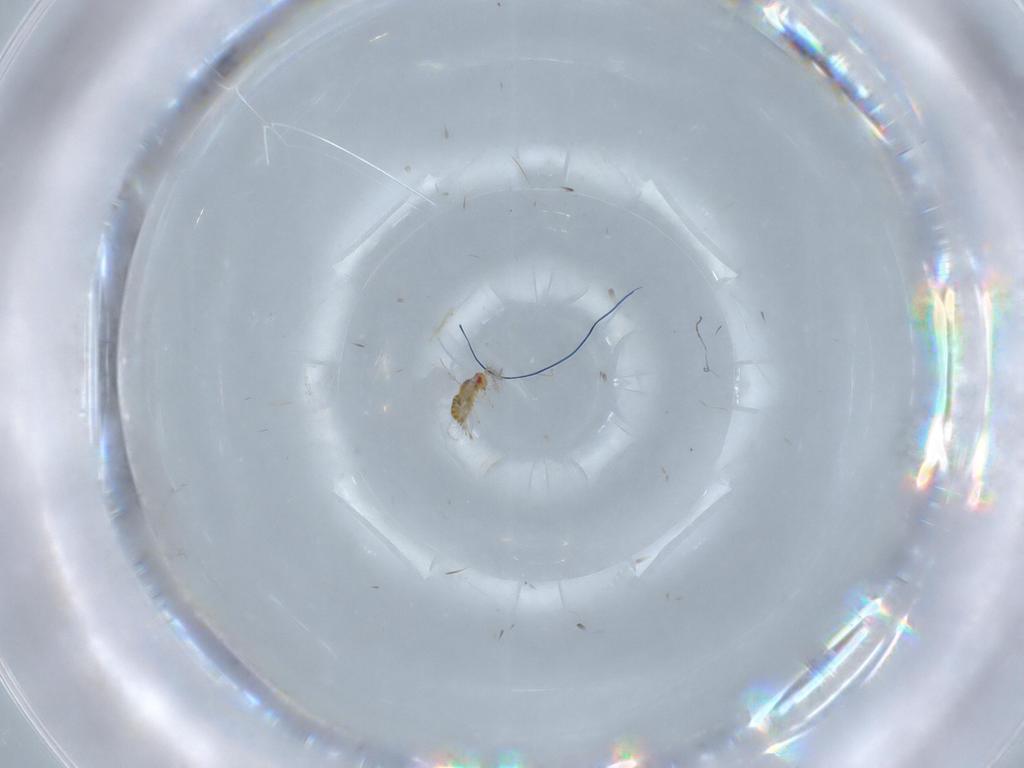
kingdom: Animalia
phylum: Arthropoda
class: Insecta
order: Hymenoptera
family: Trichogrammatidae
